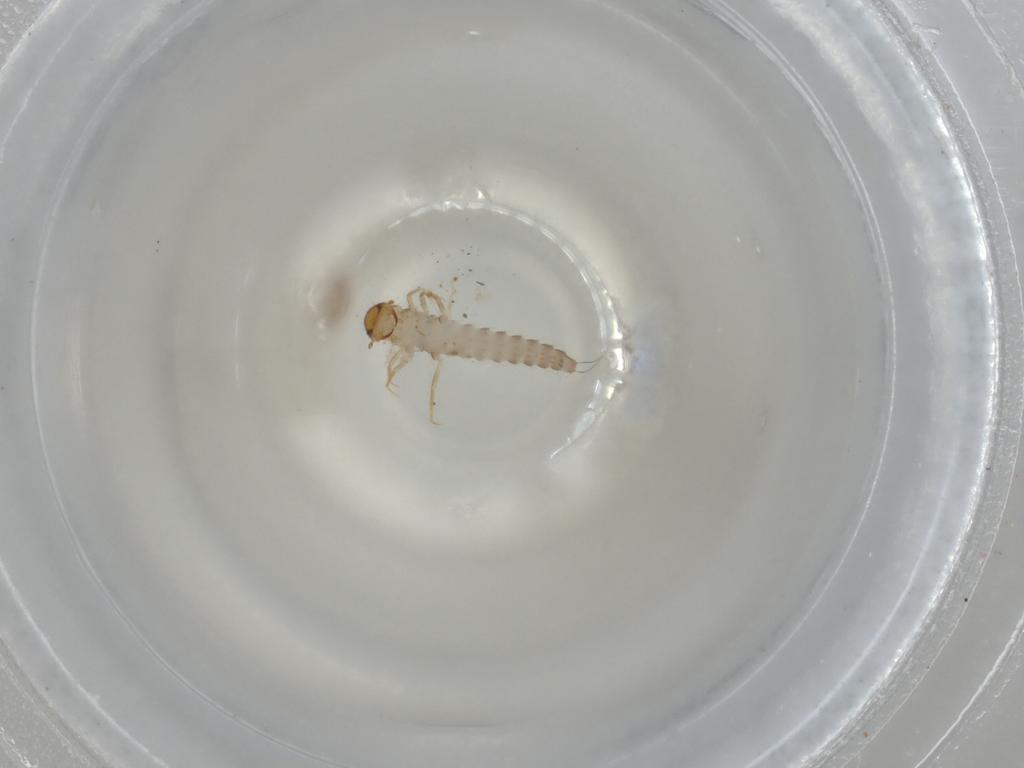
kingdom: Animalia
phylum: Arthropoda
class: Insecta
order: Coleoptera
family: Meloidae
